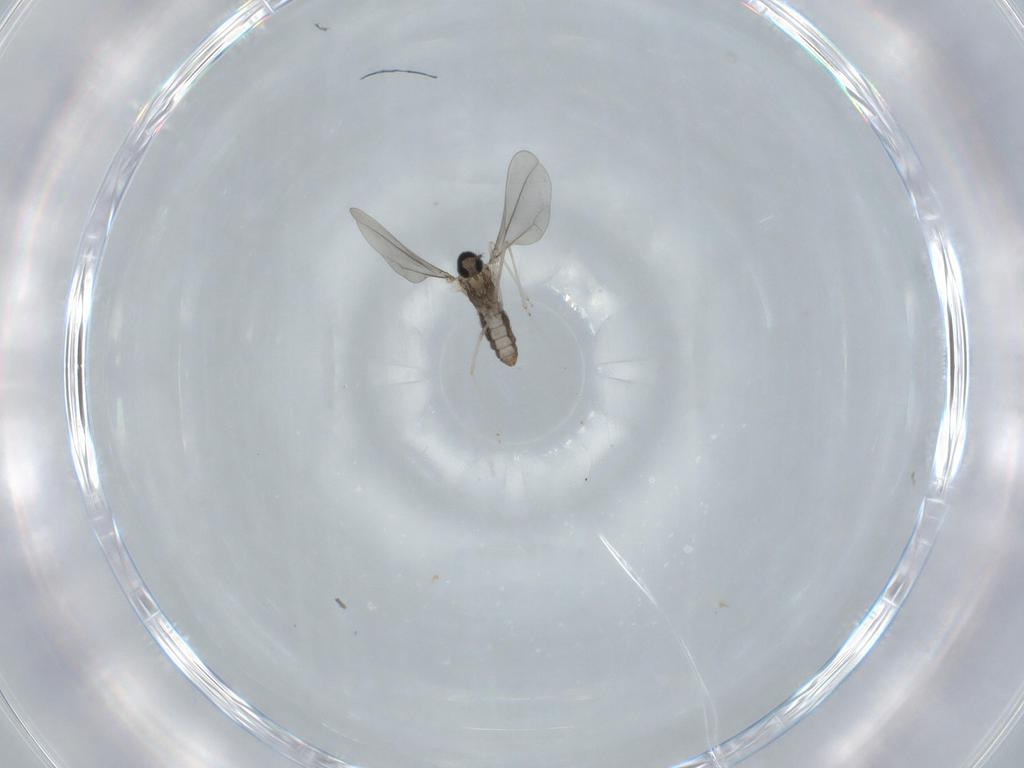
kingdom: Animalia
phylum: Arthropoda
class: Insecta
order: Diptera
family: Cecidomyiidae
